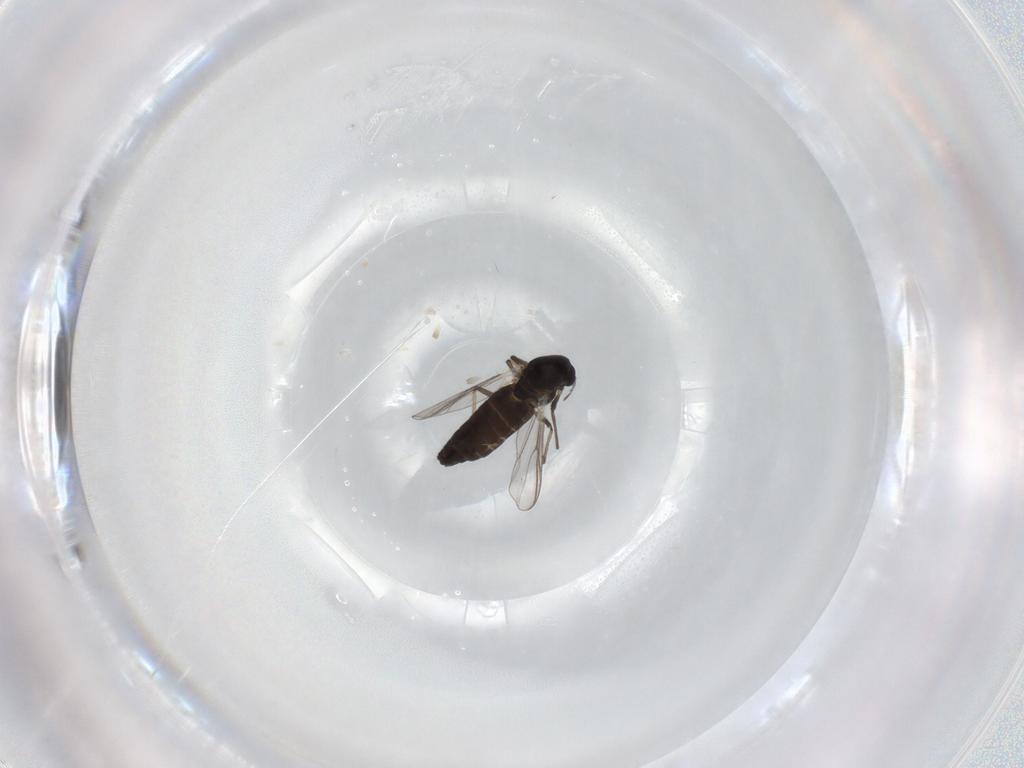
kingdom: Animalia
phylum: Arthropoda
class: Insecta
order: Diptera
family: Chironomidae
